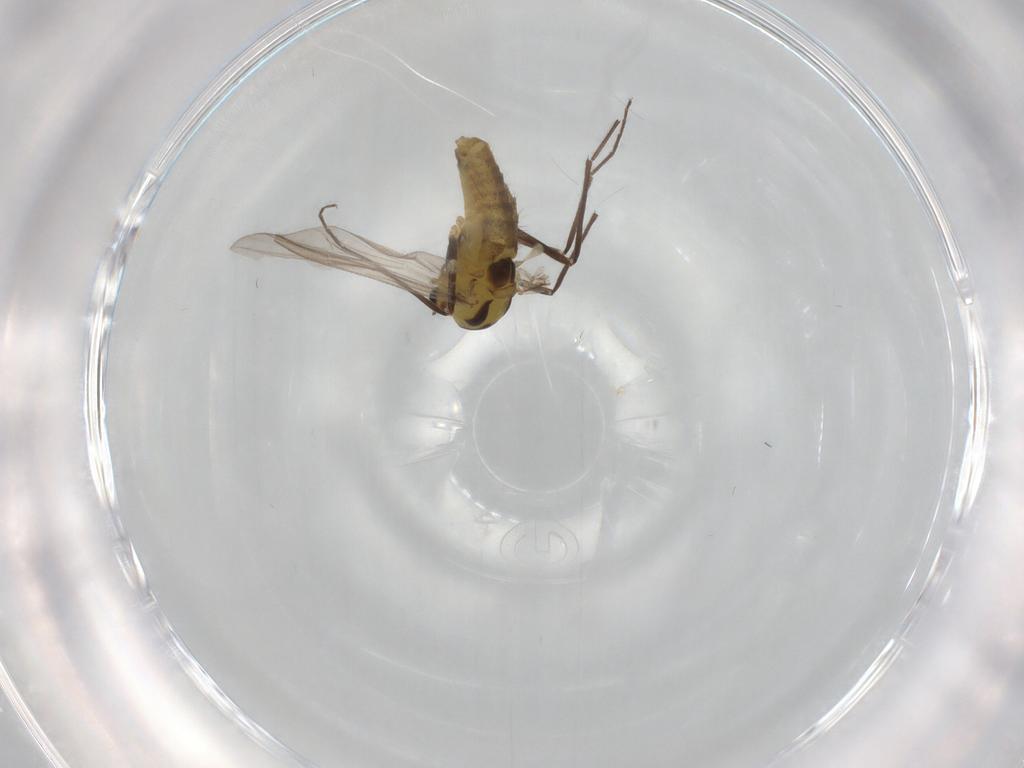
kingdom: Animalia
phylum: Arthropoda
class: Insecta
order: Diptera
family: Chironomidae
